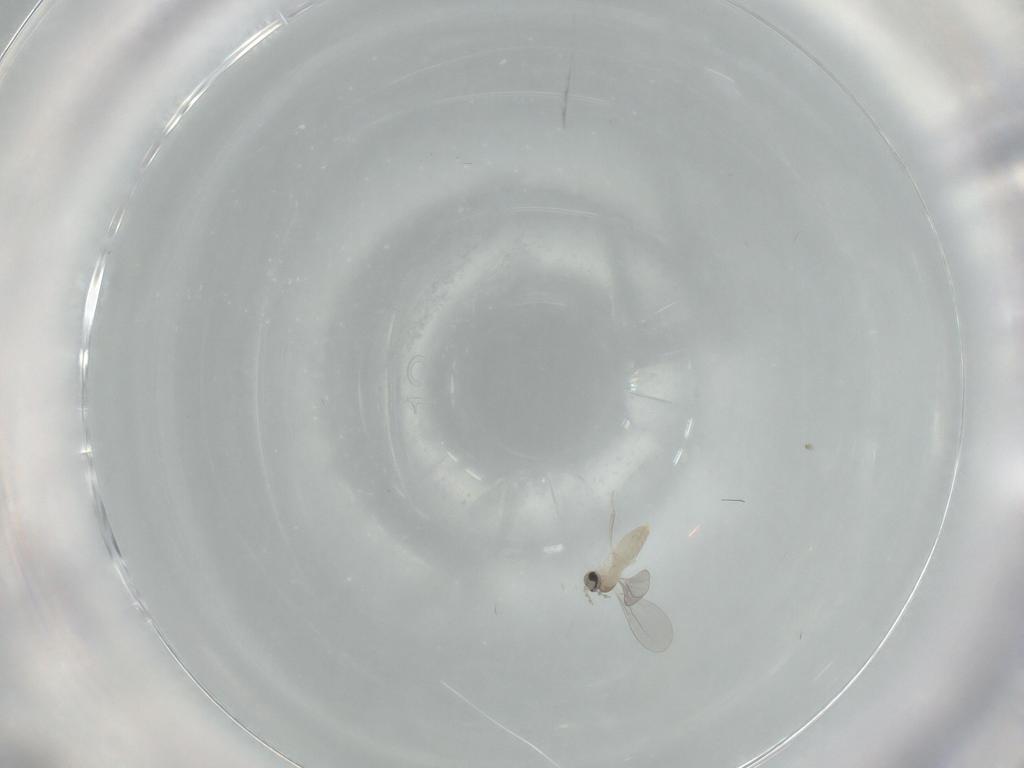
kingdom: Animalia
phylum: Arthropoda
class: Insecta
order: Diptera
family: Cecidomyiidae
